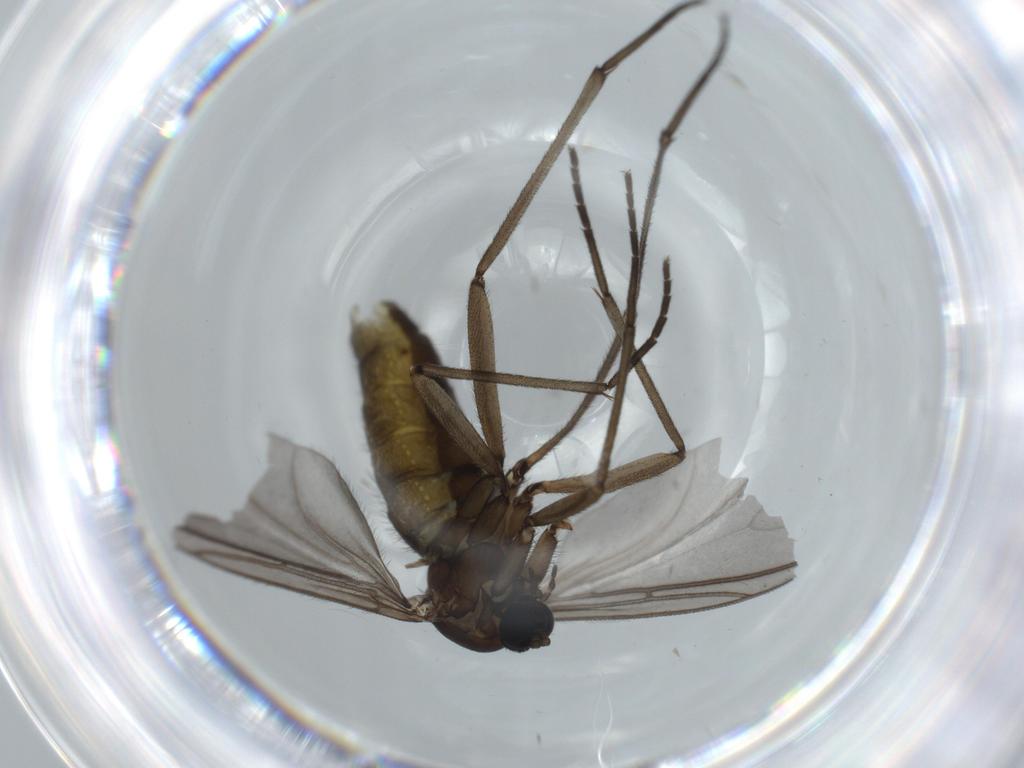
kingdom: Animalia
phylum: Arthropoda
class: Insecta
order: Diptera
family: Sciaridae
